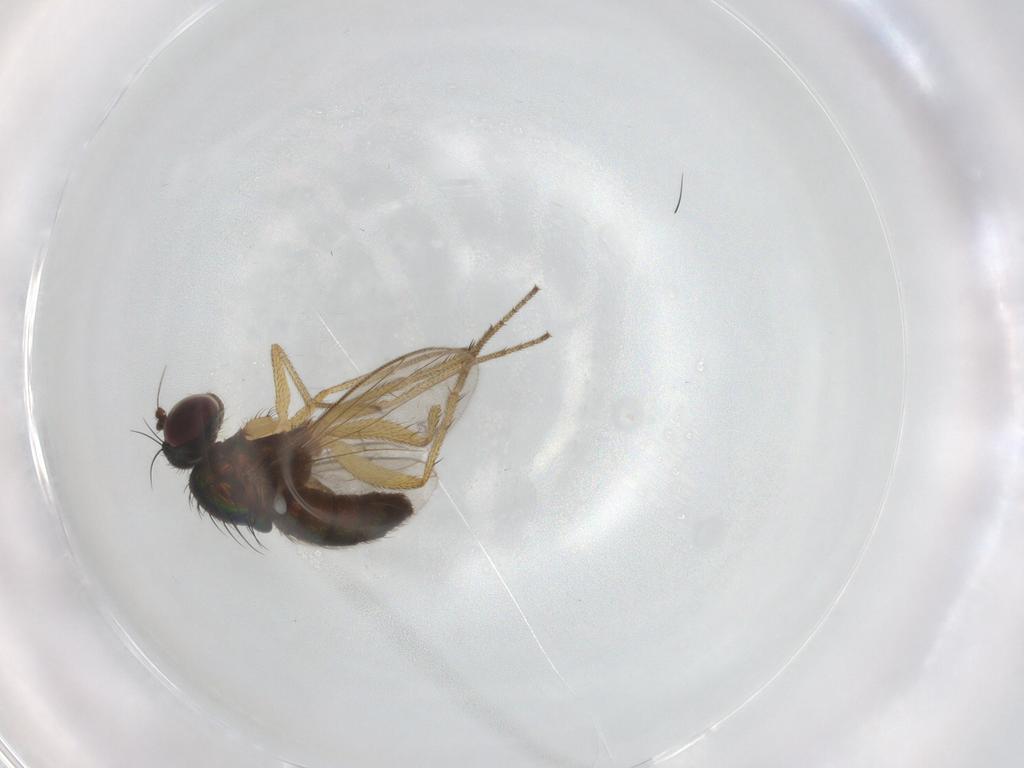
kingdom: Animalia
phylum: Arthropoda
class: Insecta
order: Diptera
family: Dolichopodidae
